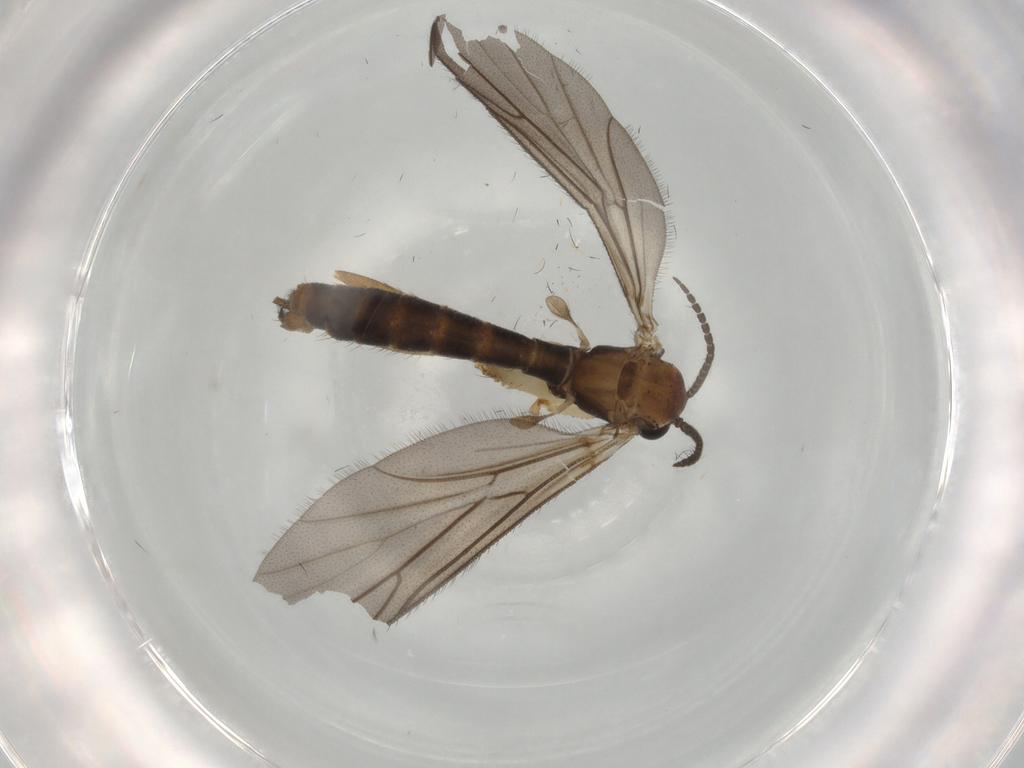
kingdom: Animalia
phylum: Arthropoda
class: Insecta
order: Diptera
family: Ditomyiidae
